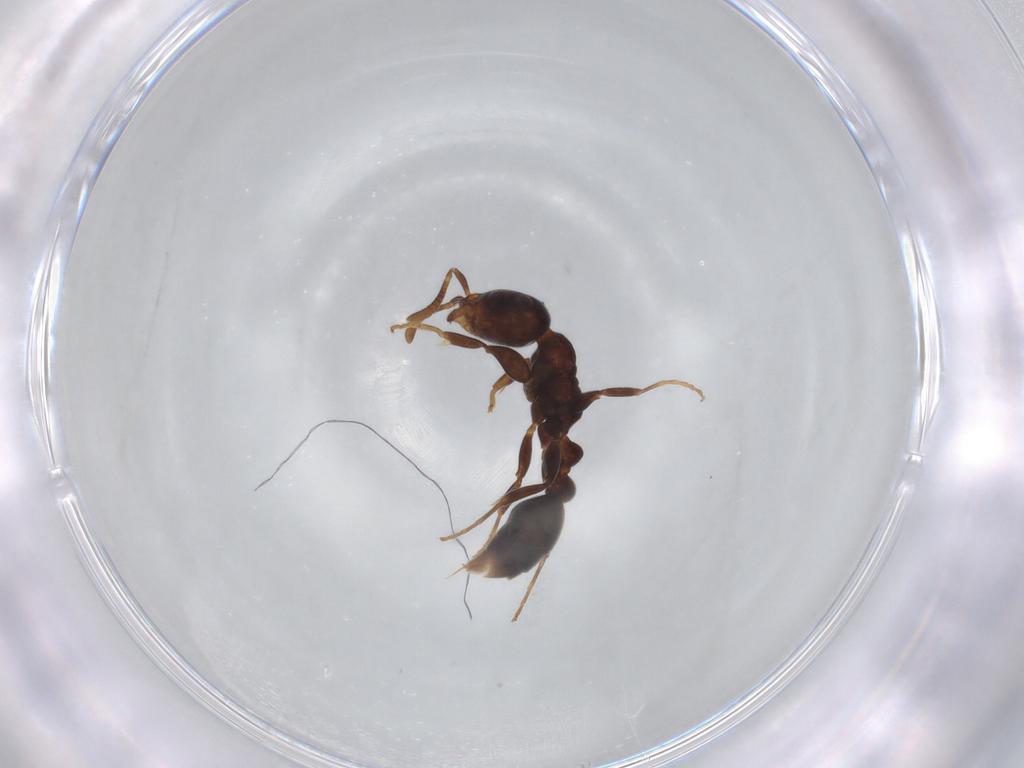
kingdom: Animalia
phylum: Arthropoda
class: Insecta
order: Hymenoptera
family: Formicidae
